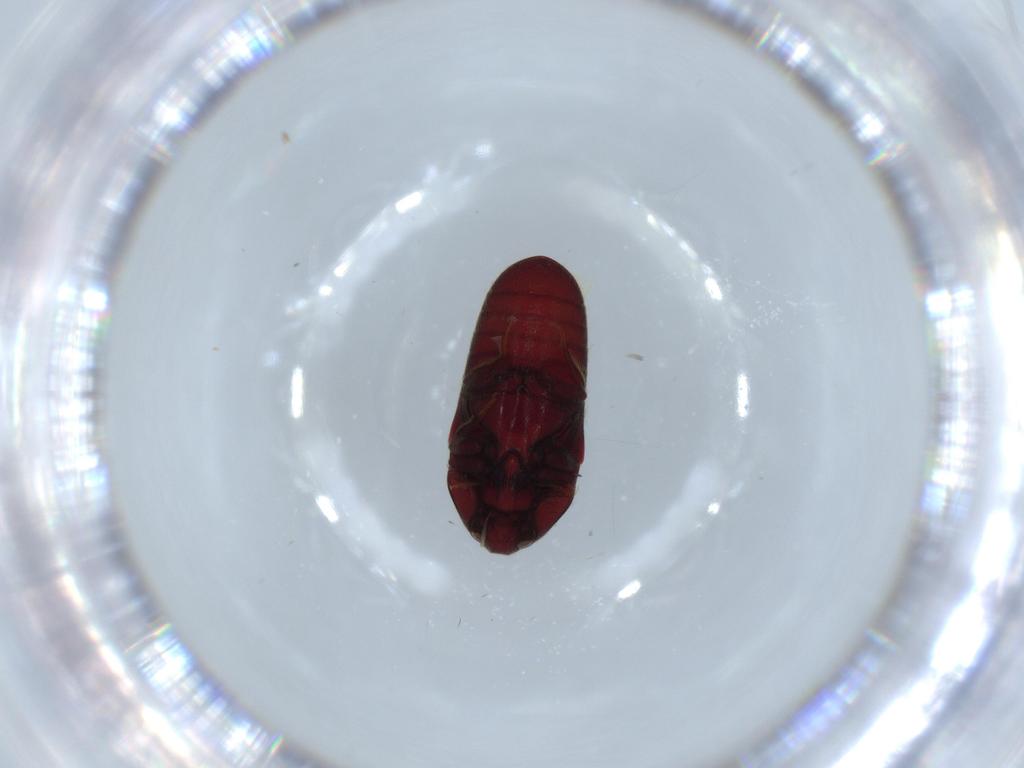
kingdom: Animalia
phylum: Arthropoda
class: Insecta
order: Coleoptera
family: Throscidae
